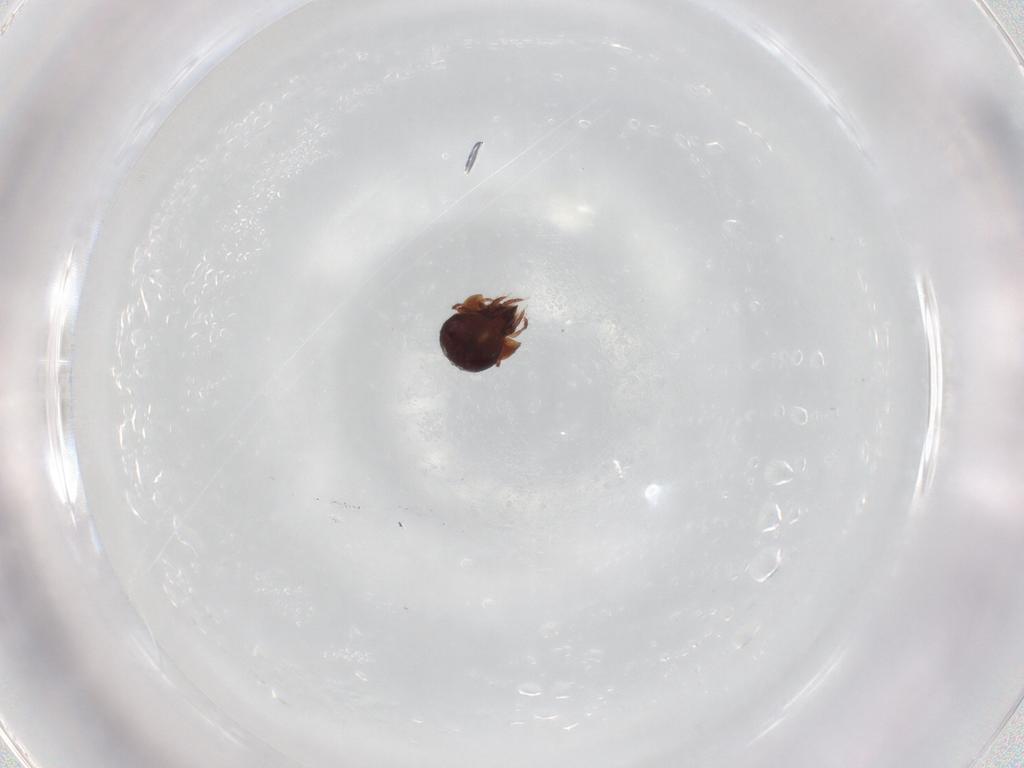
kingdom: Animalia
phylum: Arthropoda
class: Arachnida
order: Sarcoptiformes
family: Phenopelopidae
